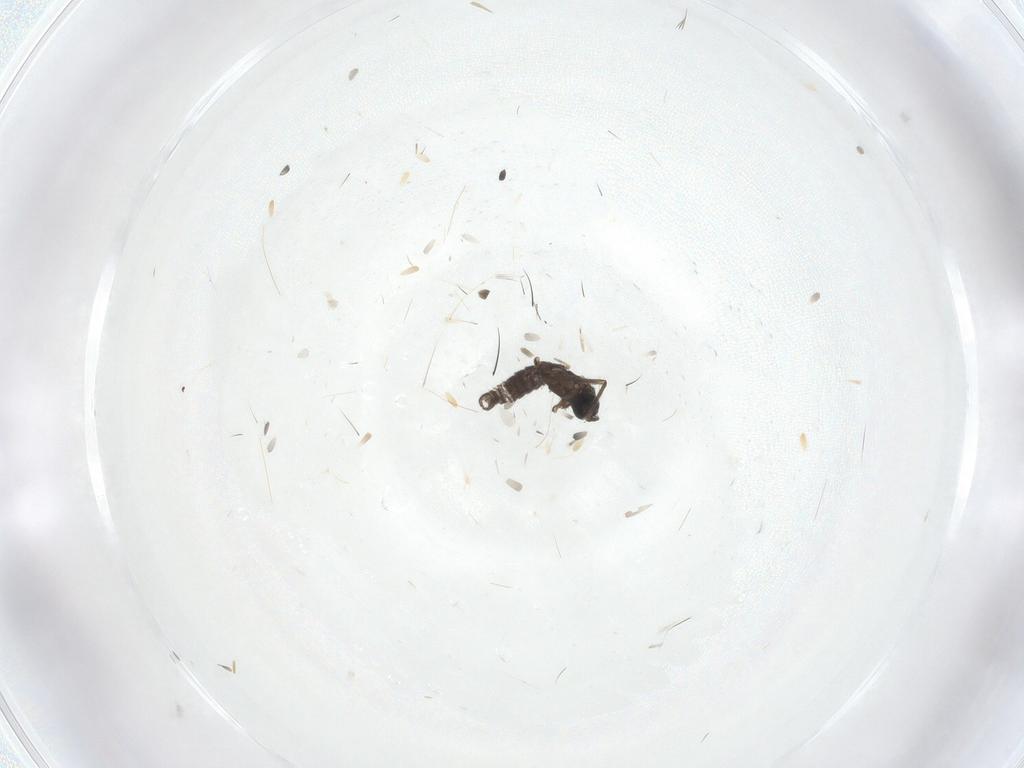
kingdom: Animalia
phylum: Arthropoda
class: Insecta
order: Diptera
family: Sciaridae
